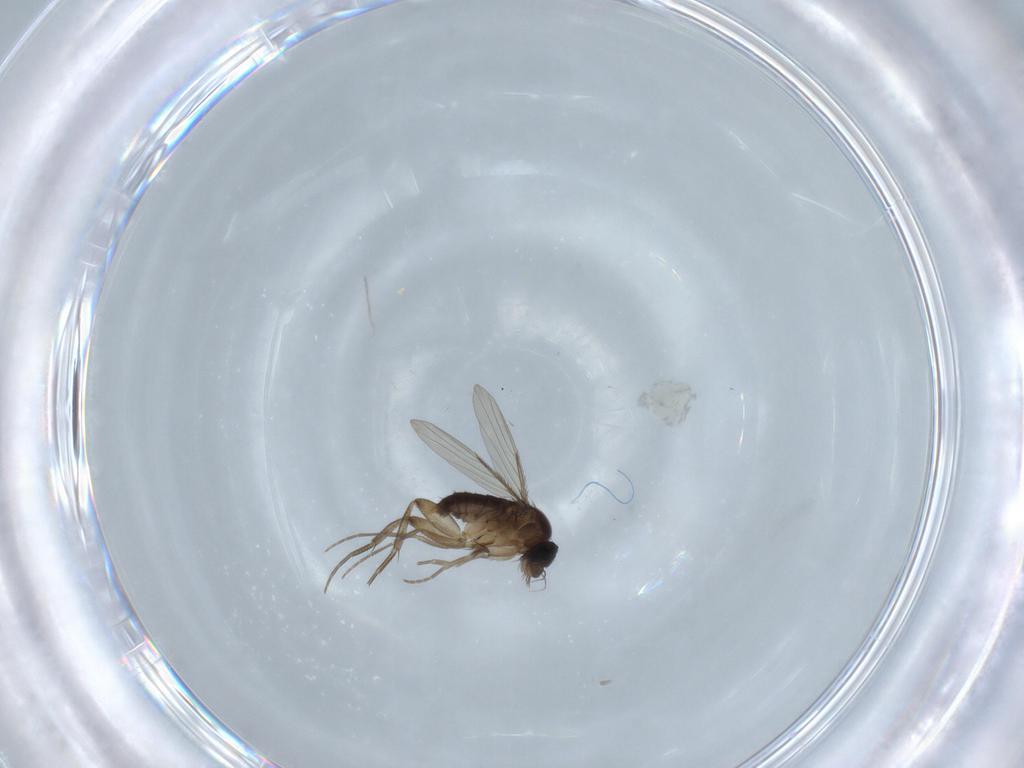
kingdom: Animalia
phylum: Arthropoda
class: Insecta
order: Diptera
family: Phoridae
